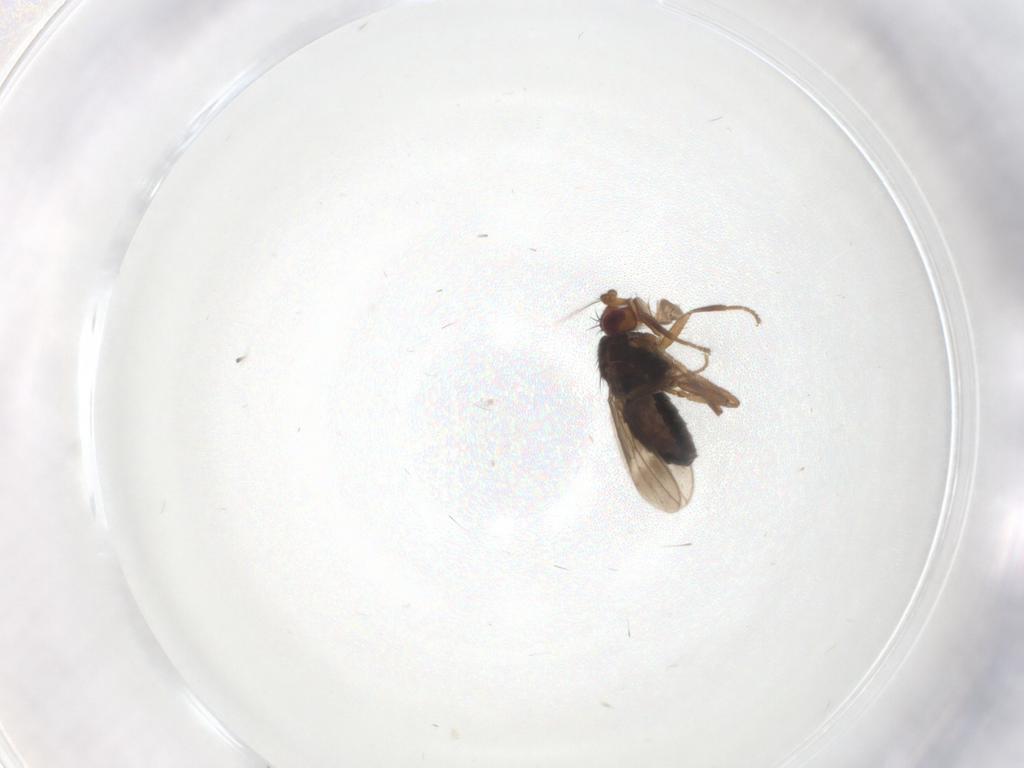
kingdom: Animalia
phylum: Arthropoda
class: Insecta
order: Diptera
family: Sphaeroceridae
